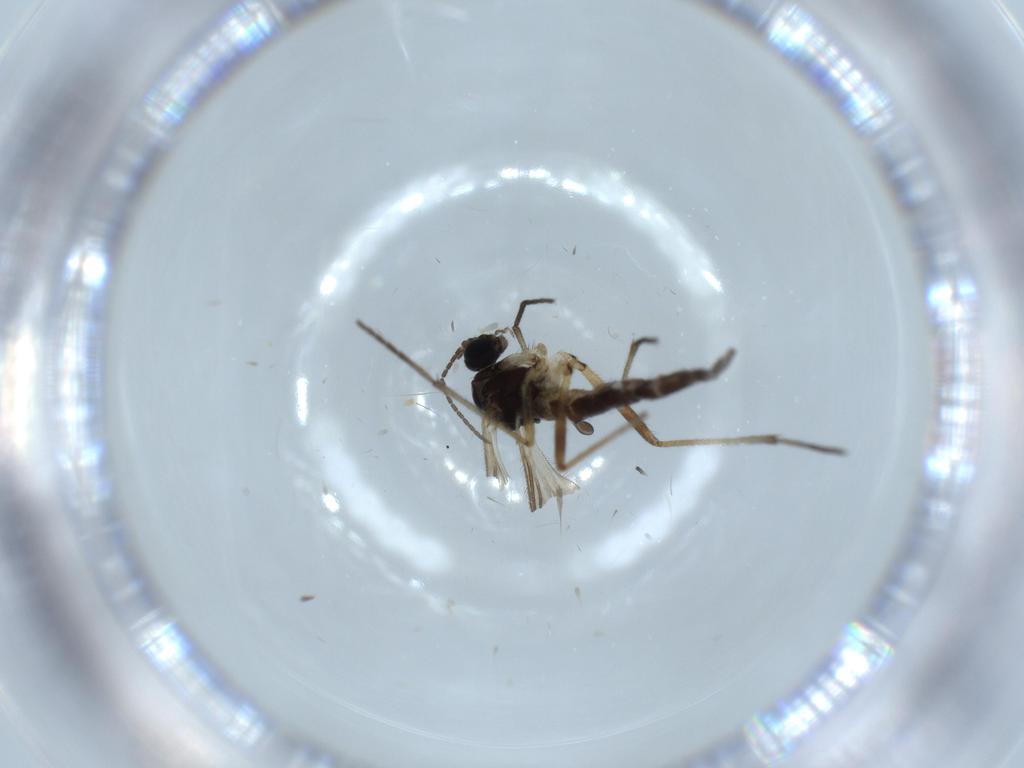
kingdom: Animalia
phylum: Arthropoda
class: Insecta
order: Diptera
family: Sciaridae
